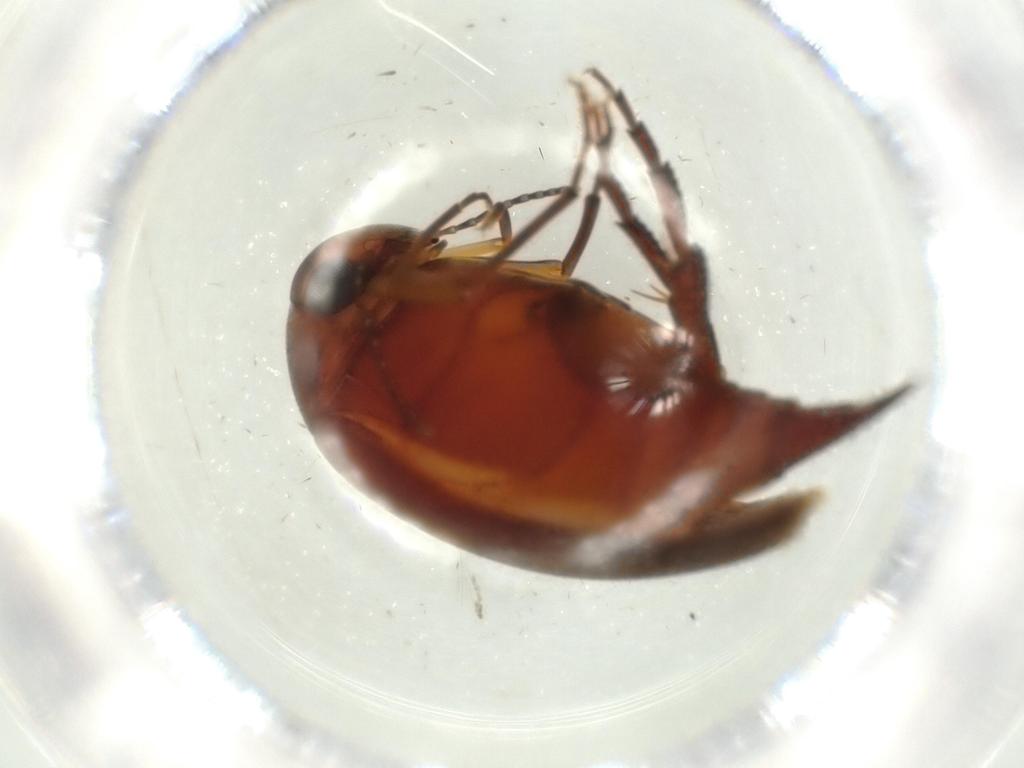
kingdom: Animalia
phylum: Arthropoda
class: Insecta
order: Coleoptera
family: Mordellidae
